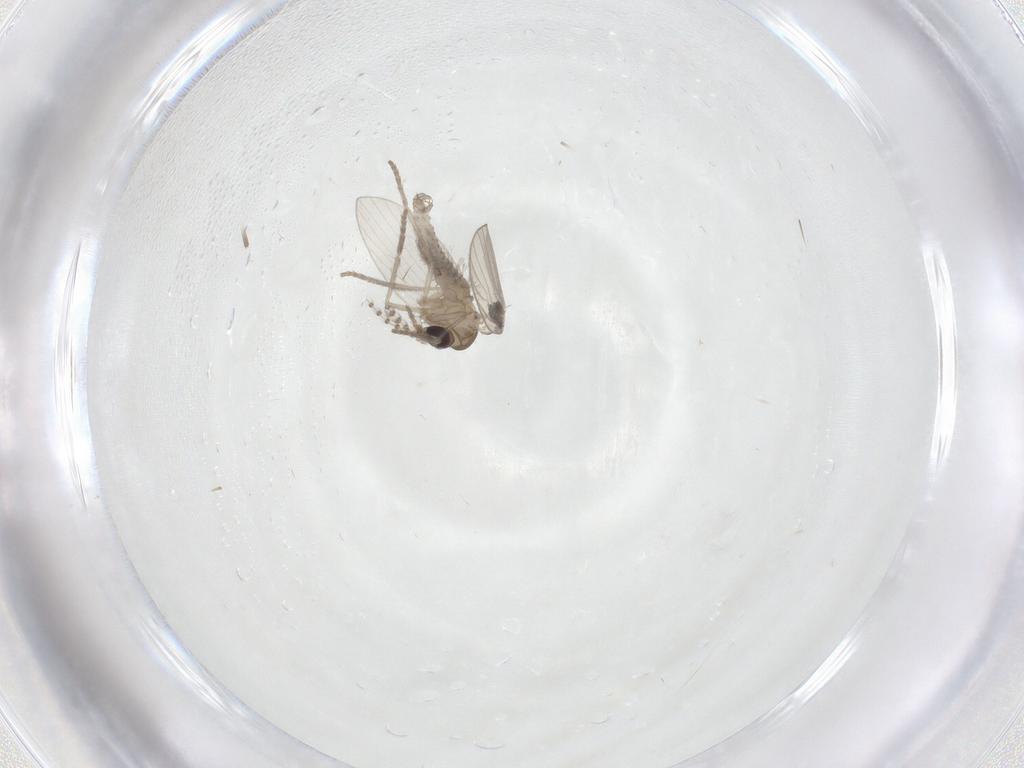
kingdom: Animalia
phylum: Arthropoda
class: Insecta
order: Diptera
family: Psychodidae
